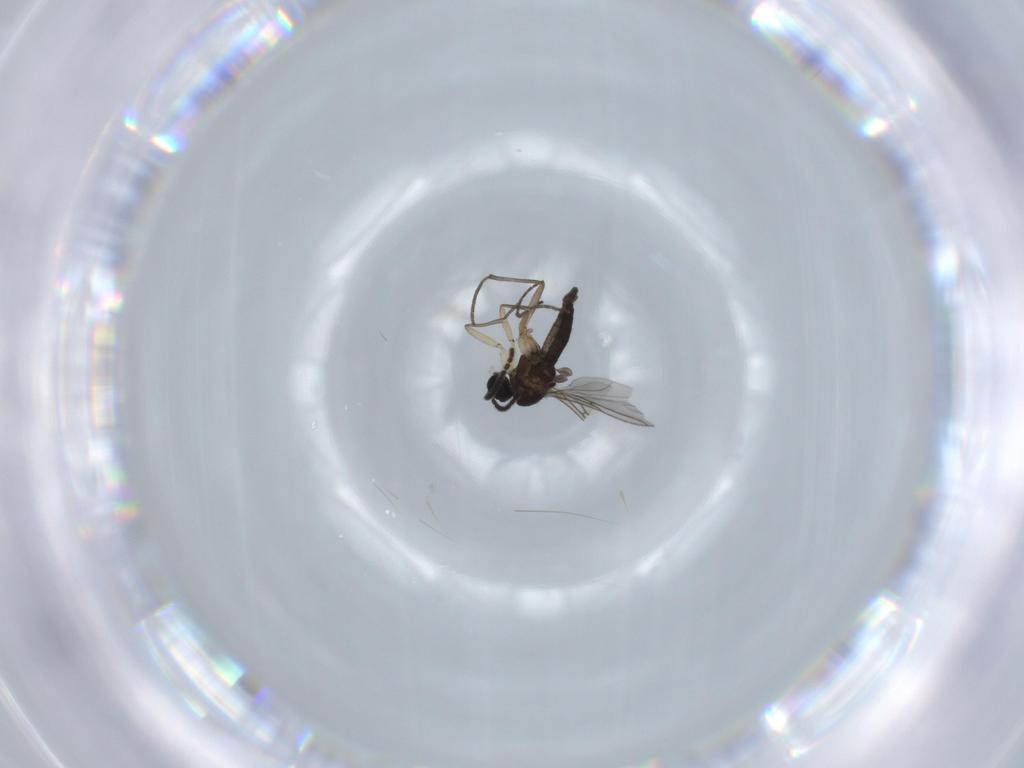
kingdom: Animalia
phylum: Arthropoda
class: Insecta
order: Diptera
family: Sciaridae
